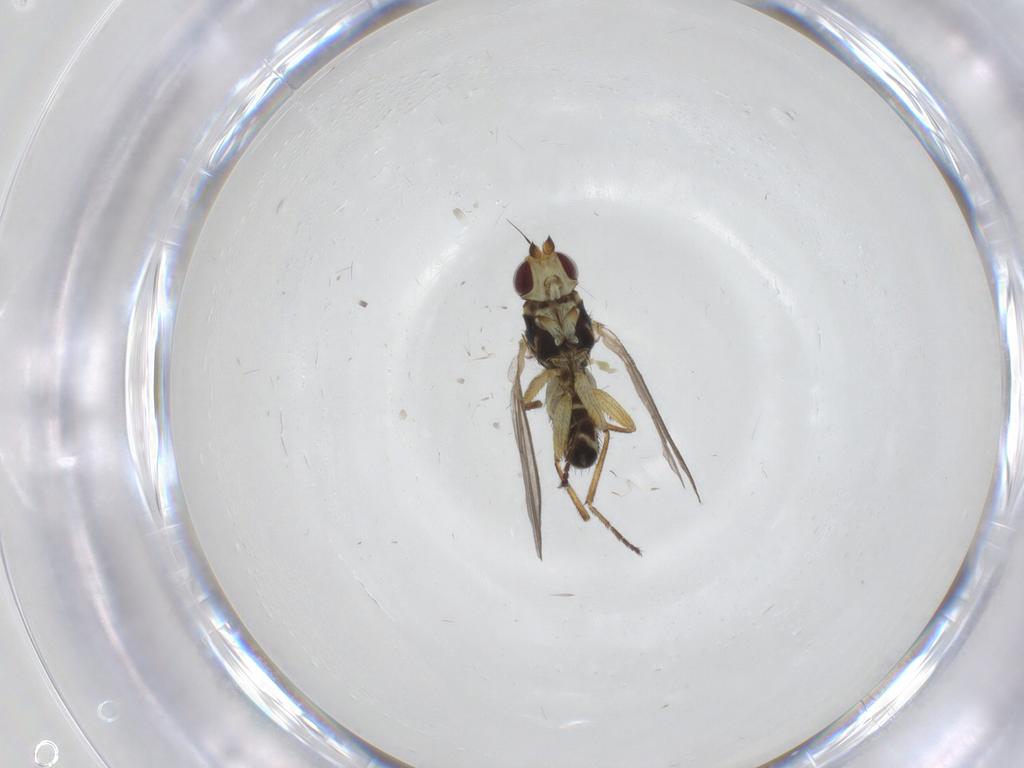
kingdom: Animalia
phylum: Arthropoda
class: Insecta
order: Diptera
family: Agromyzidae
